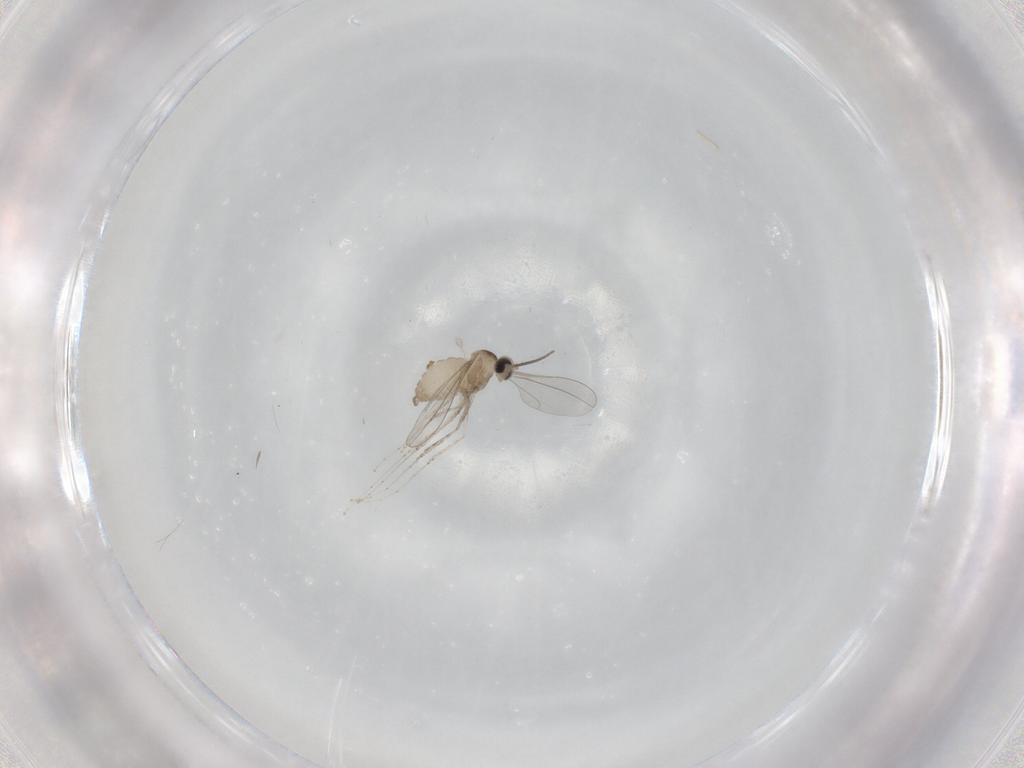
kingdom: Animalia
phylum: Arthropoda
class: Insecta
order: Diptera
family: Cecidomyiidae
